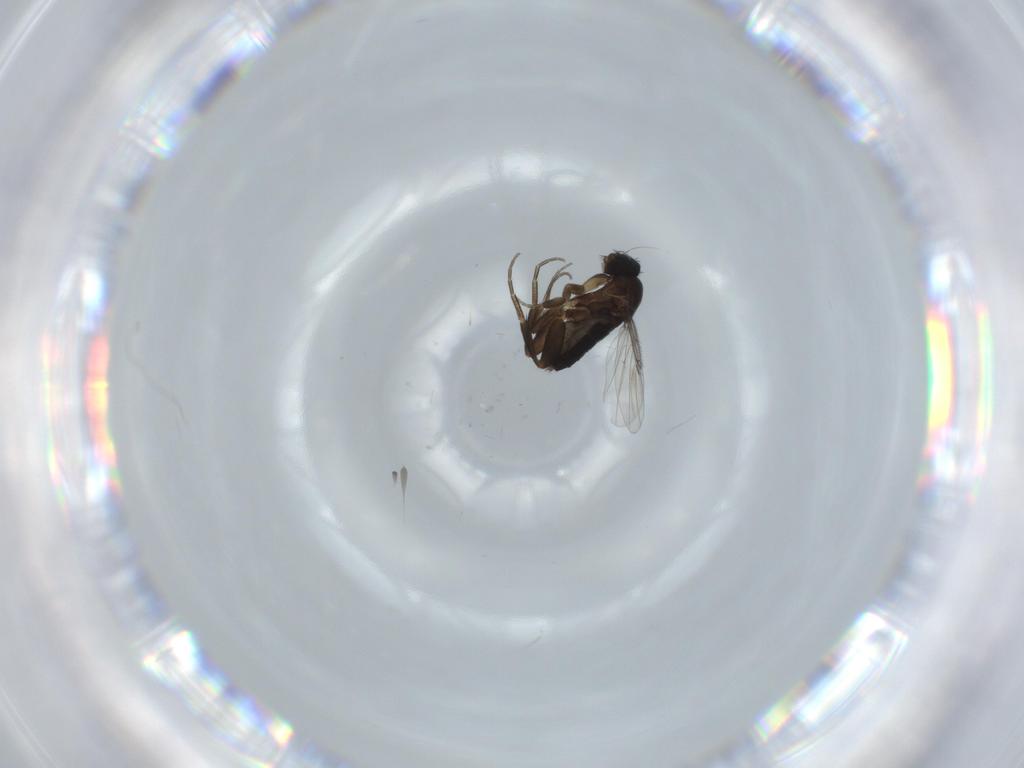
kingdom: Animalia
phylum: Arthropoda
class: Insecta
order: Diptera
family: Phoridae
